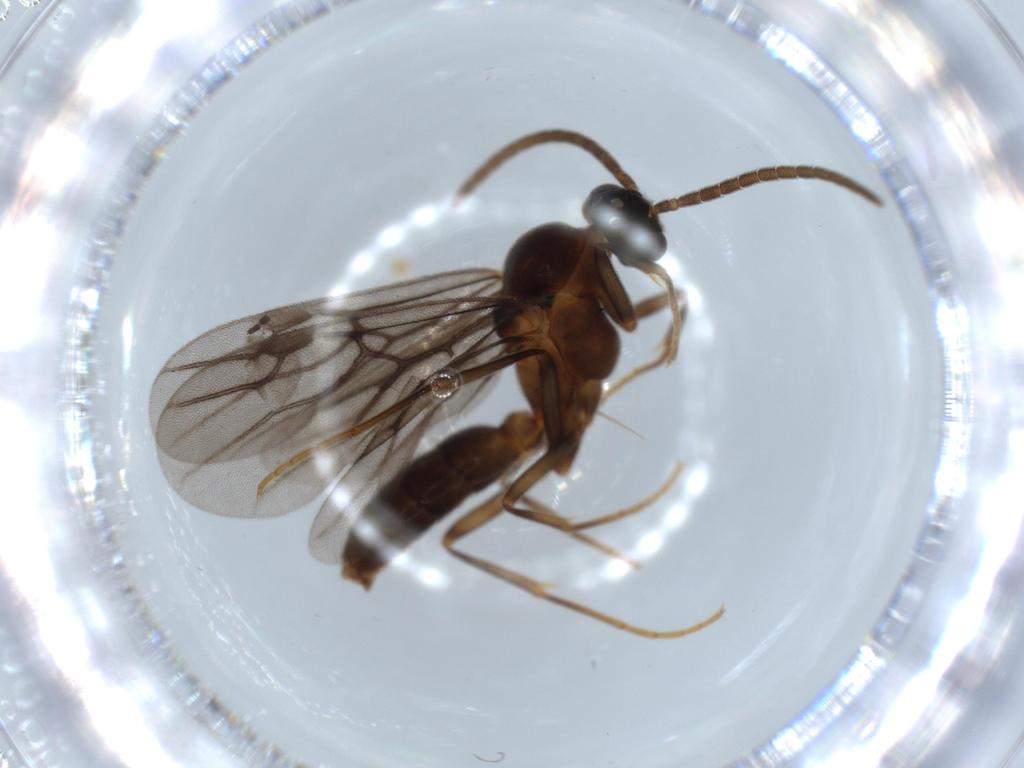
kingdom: Animalia
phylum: Arthropoda
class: Insecta
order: Hymenoptera
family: Formicidae
